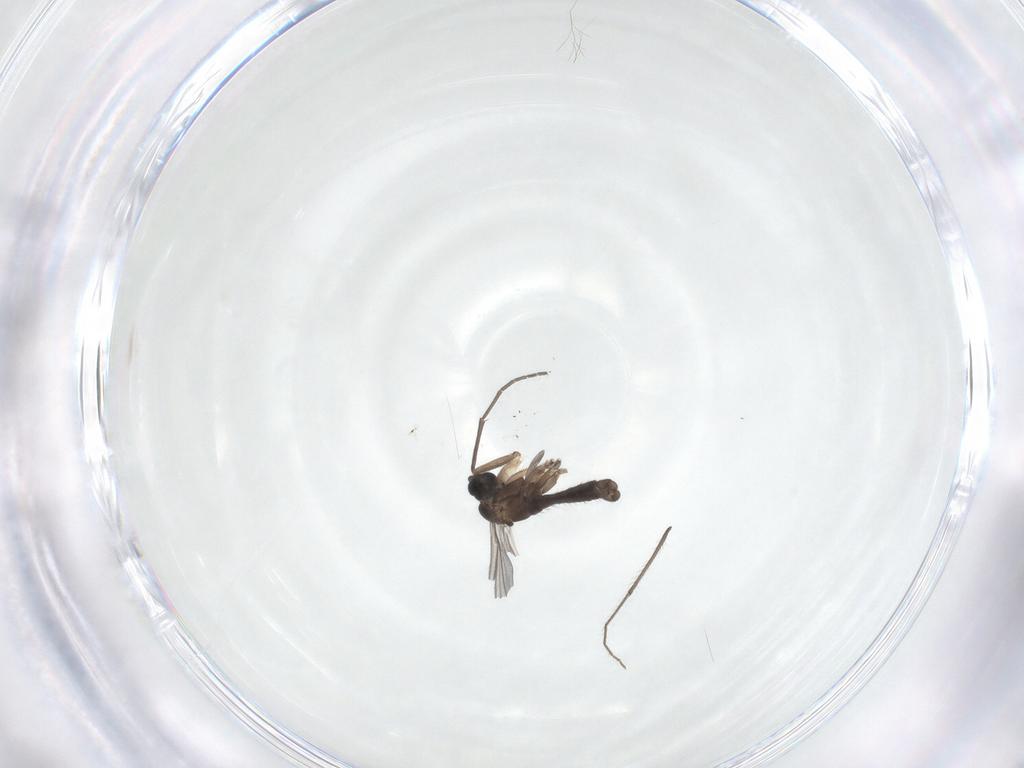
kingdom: Animalia
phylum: Arthropoda
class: Insecta
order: Diptera
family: Sciaridae
